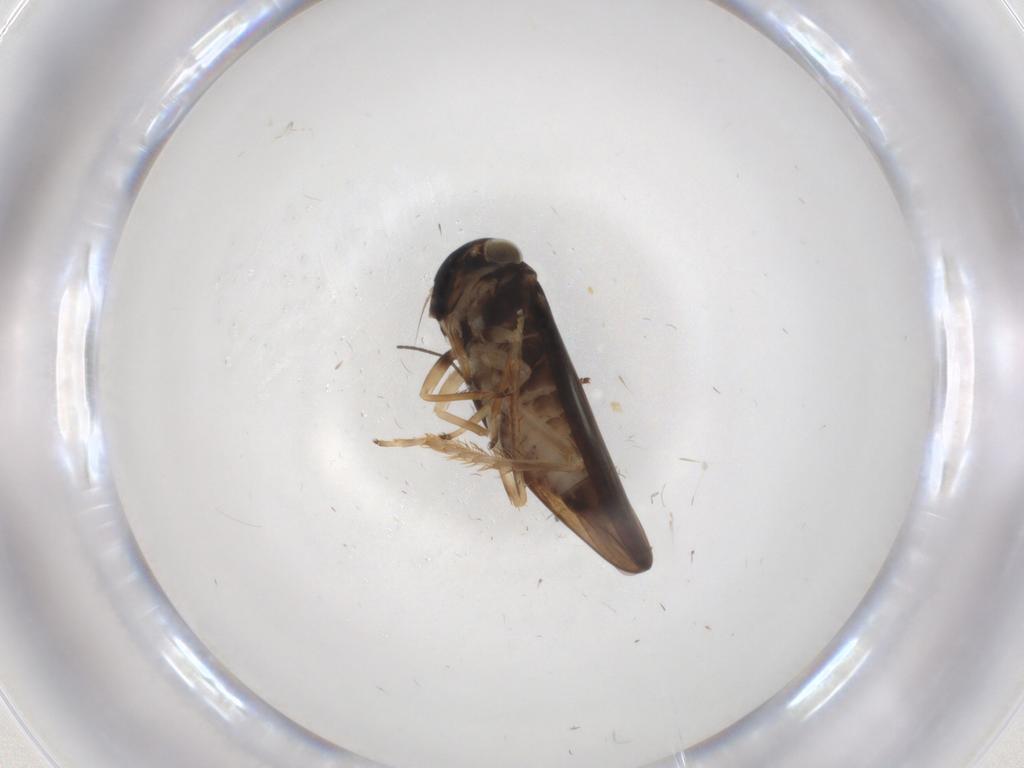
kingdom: Animalia
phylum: Arthropoda
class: Insecta
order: Hemiptera
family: Cicadellidae
